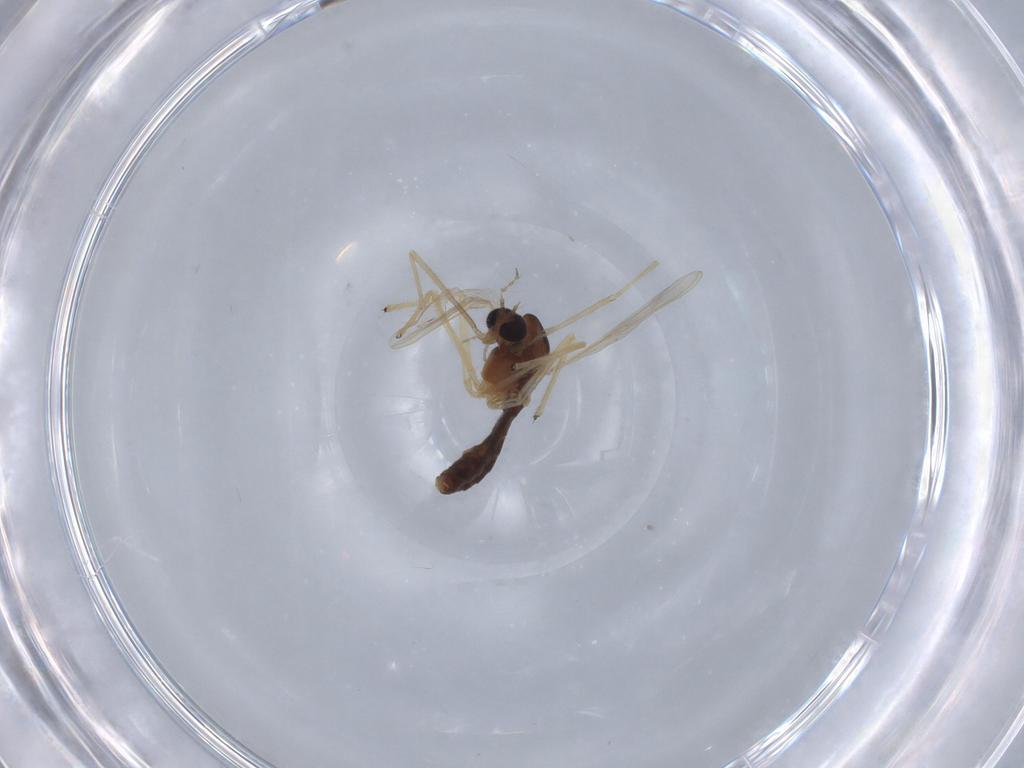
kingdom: Animalia
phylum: Arthropoda
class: Insecta
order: Diptera
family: Chironomidae
